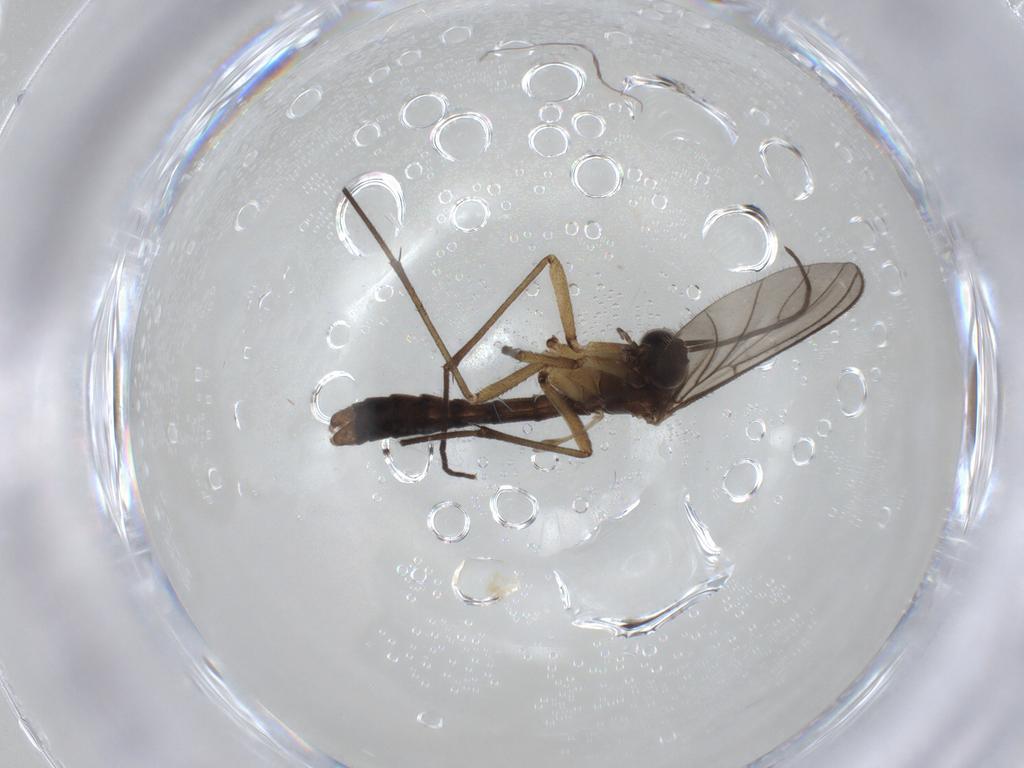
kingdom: Animalia
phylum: Arthropoda
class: Insecta
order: Diptera
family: Chironomidae
